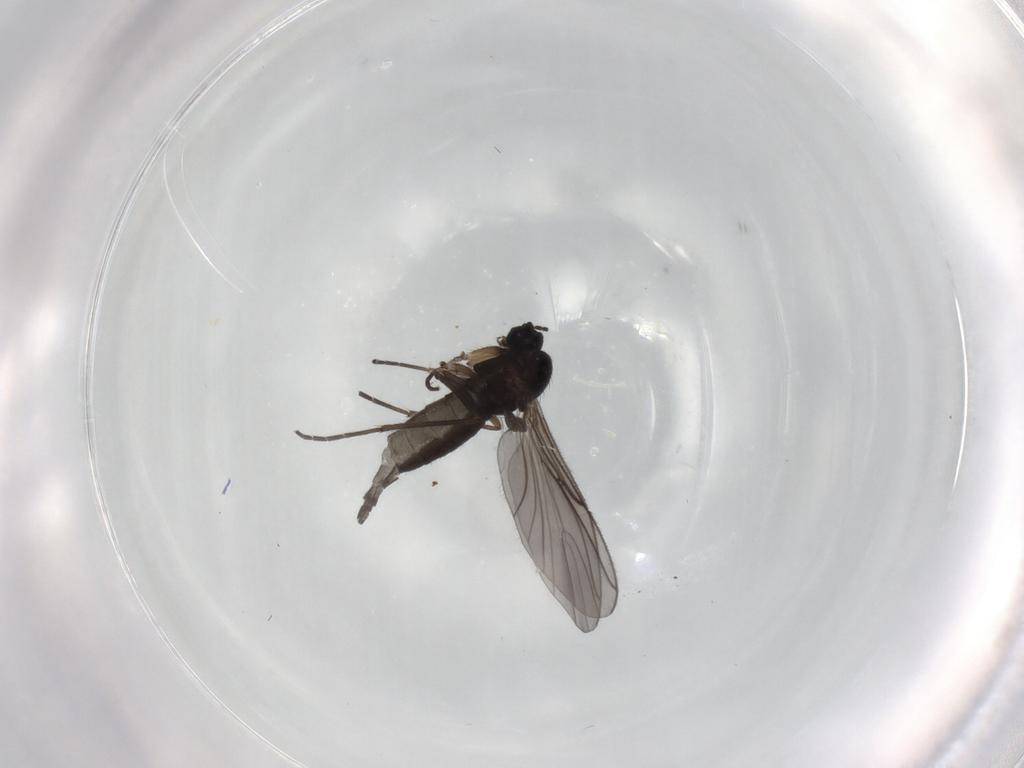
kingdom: Animalia
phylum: Arthropoda
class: Insecta
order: Diptera
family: Sciaridae
